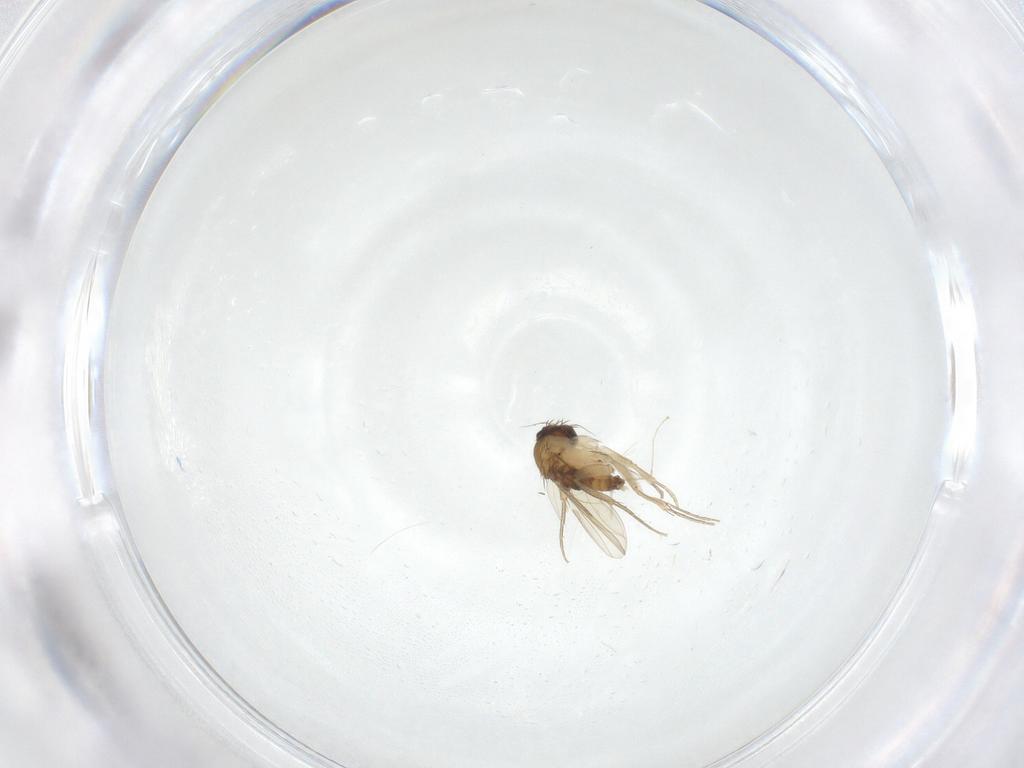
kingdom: Animalia
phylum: Arthropoda
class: Insecta
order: Diptera
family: Phoridae
